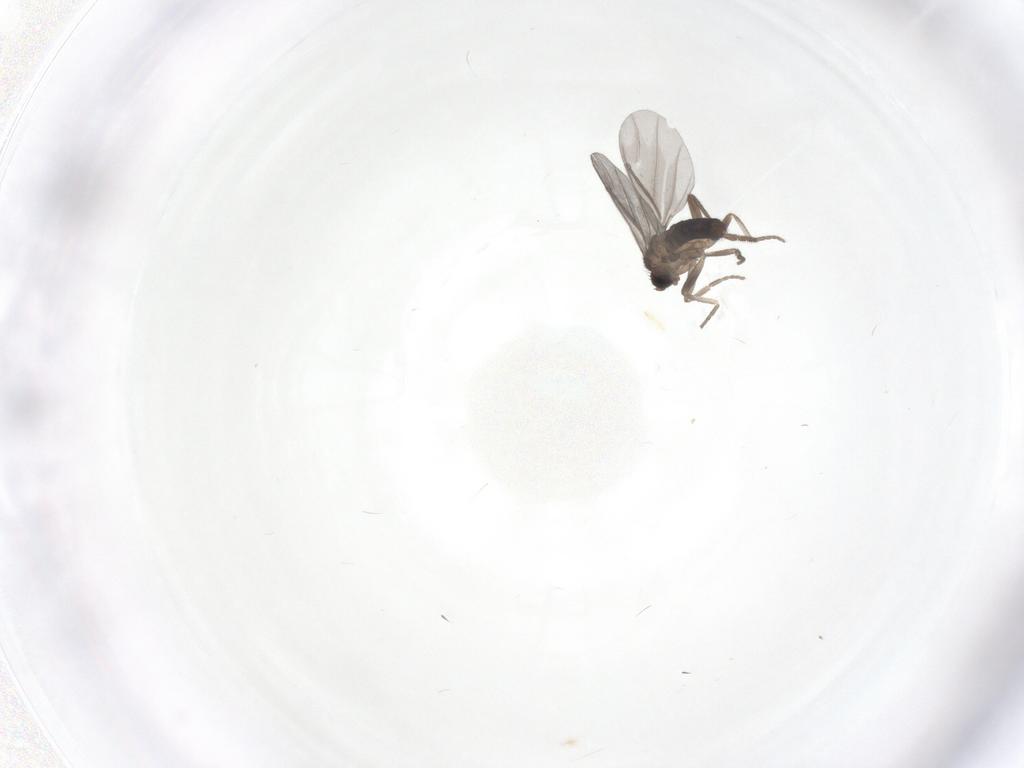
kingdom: Animalia
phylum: Arthropoda
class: Insecta
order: Diptera
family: Phoridae
